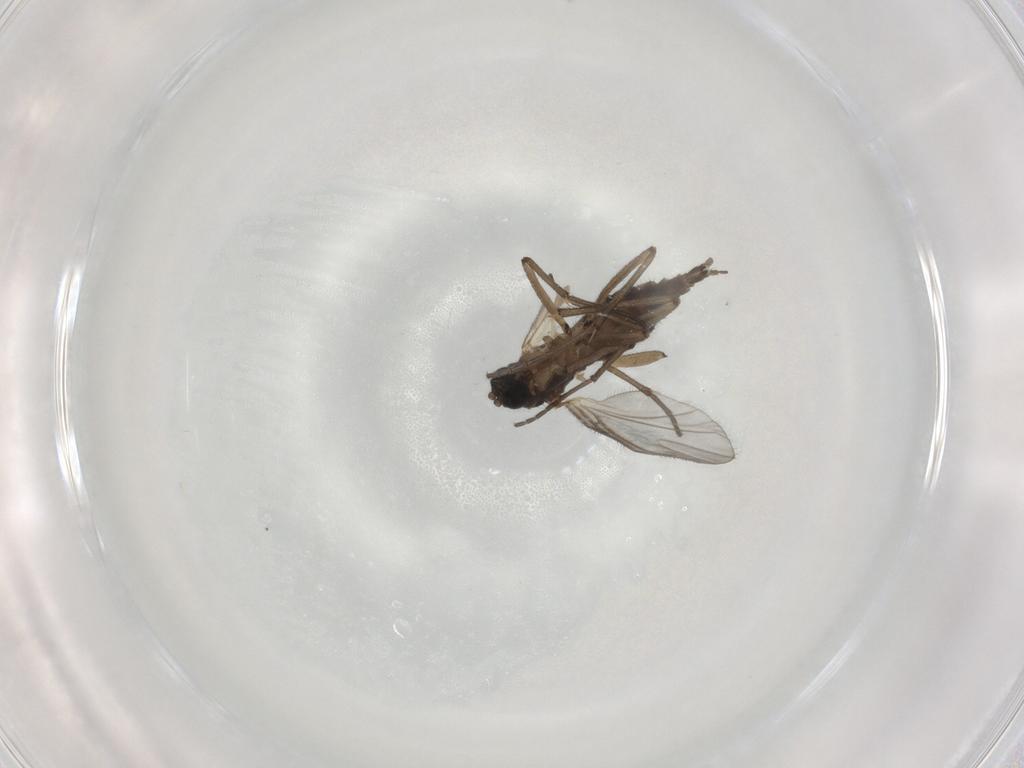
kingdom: Animalia
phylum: Arthropoda
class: Insecta
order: Diptera
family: Sciaridae
